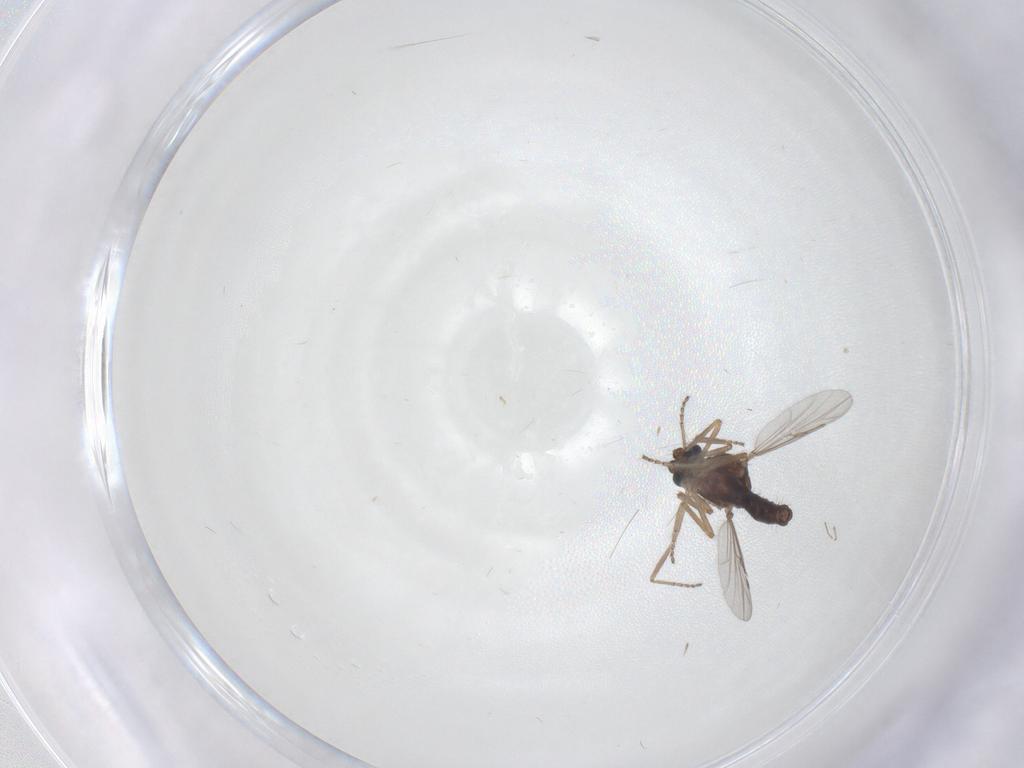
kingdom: Animalia
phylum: Arthropoda
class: Insecta
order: Diptera
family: Ceratopogonidae
